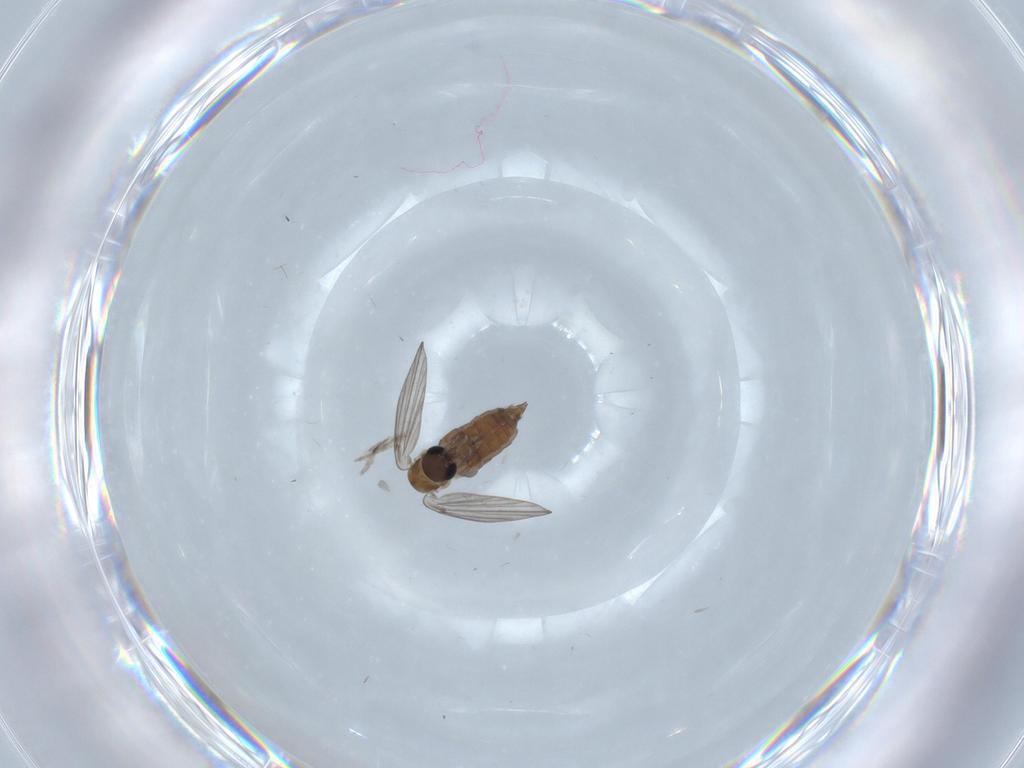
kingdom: Animalia
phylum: Arthropoda
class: Insecta
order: Diptera
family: Psychodidae
